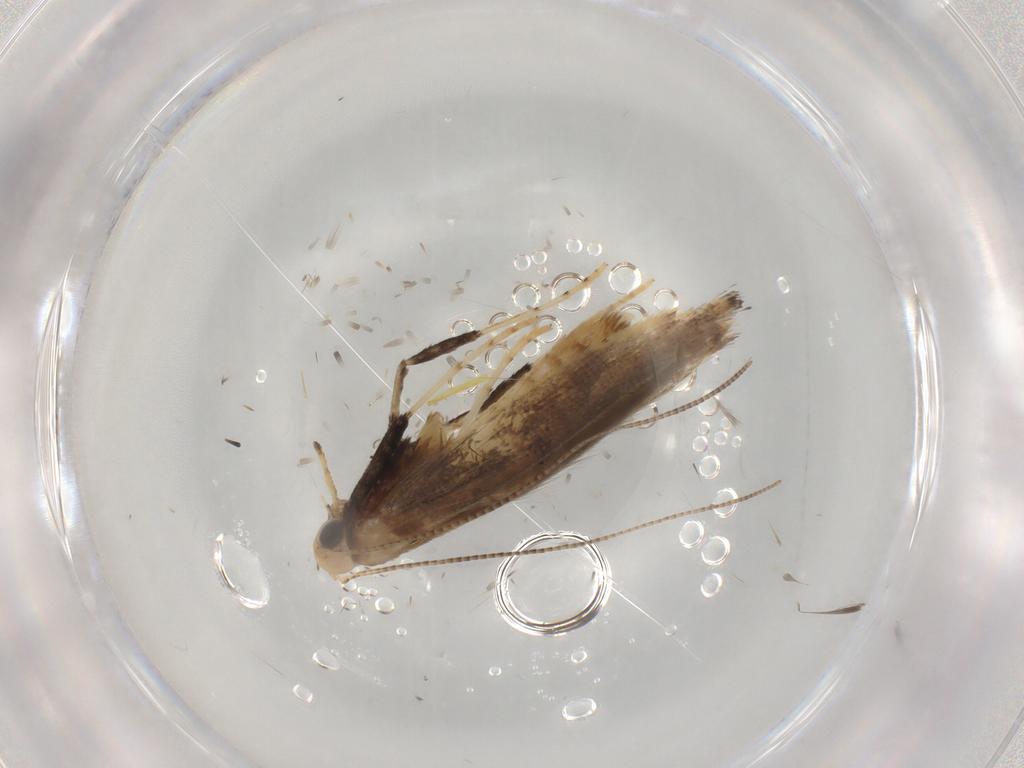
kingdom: Animalia
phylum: Arthropoda
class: Insecta
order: Lepidoptera
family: Gracillariidae
